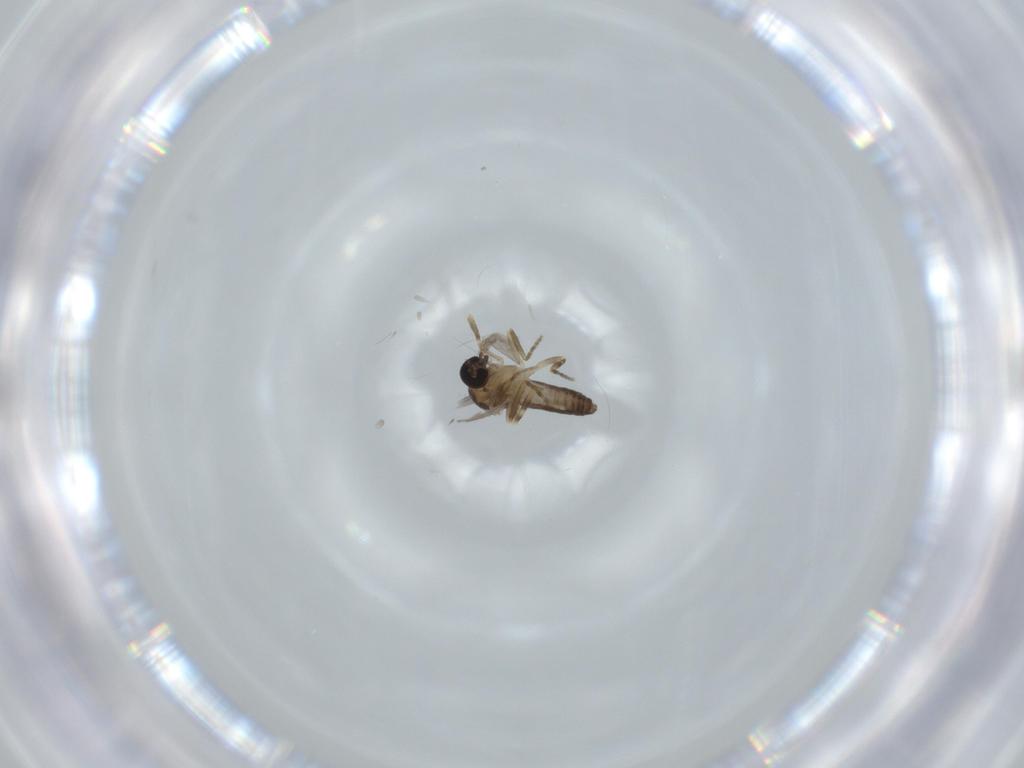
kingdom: Animalia
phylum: Arthropoda
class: Insecta
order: Diptera
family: Ceratopogonidae
